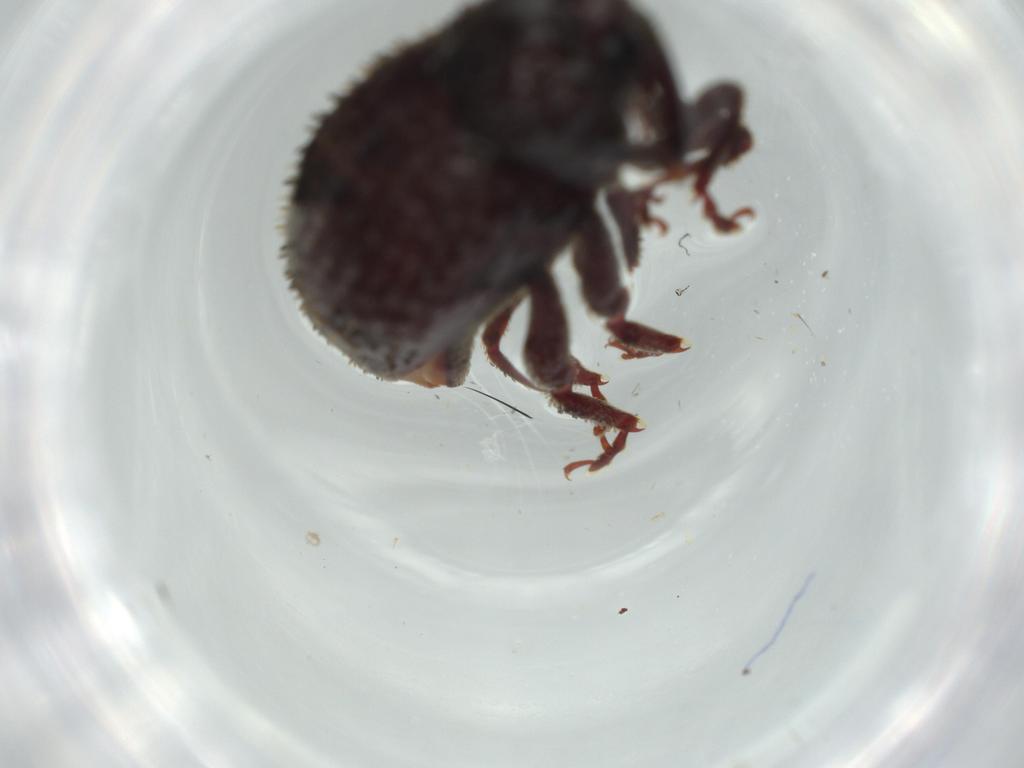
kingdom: Animalia
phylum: Arthropoda
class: Insecta
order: Coleoptera
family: Curculionidae
